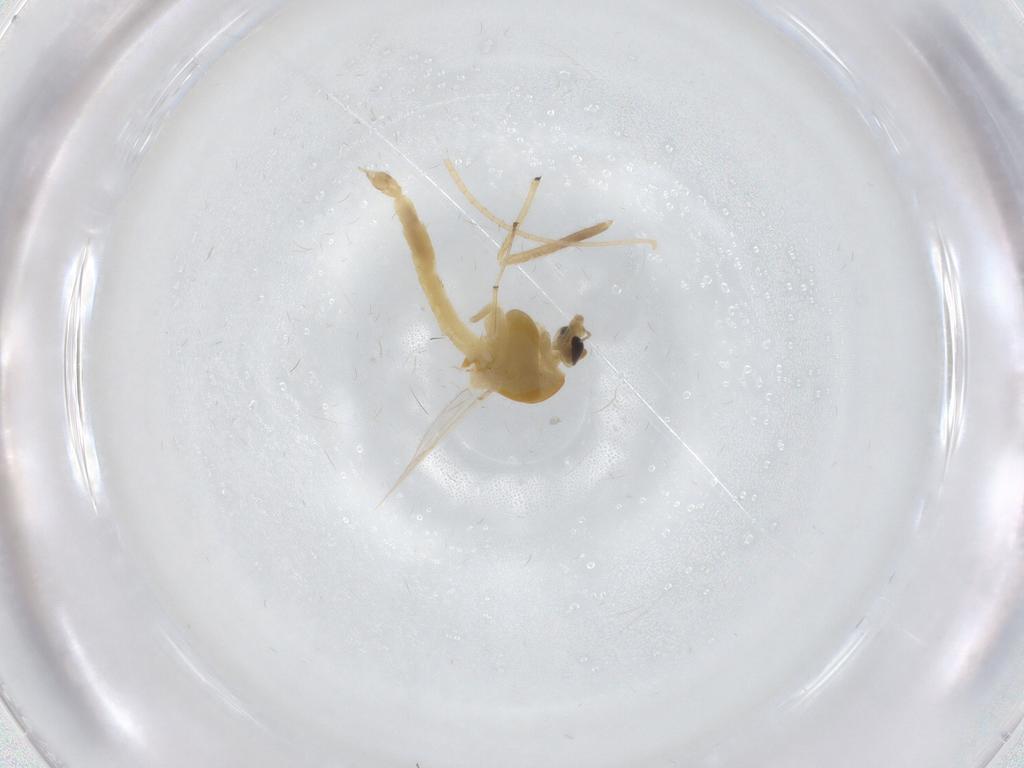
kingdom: Animalia
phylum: Arthropoda
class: Insecta
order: Diptera
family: Chironomidae
